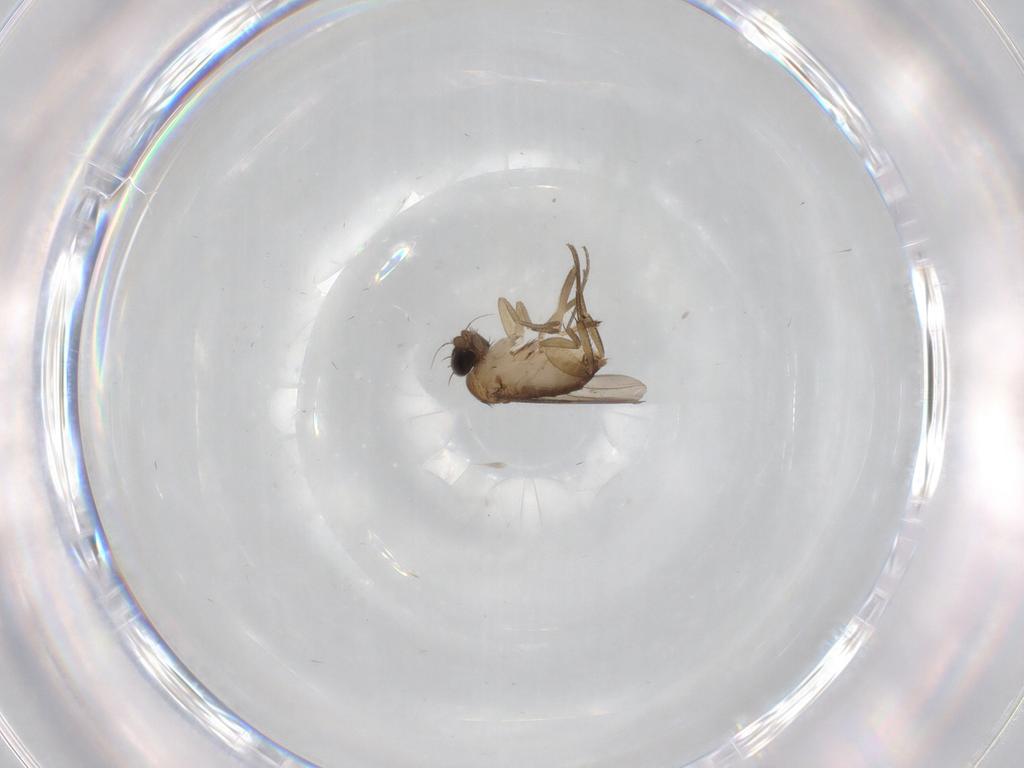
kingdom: Animalia
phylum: Arthropoda
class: Insecta
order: Diptera
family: Phoridae
